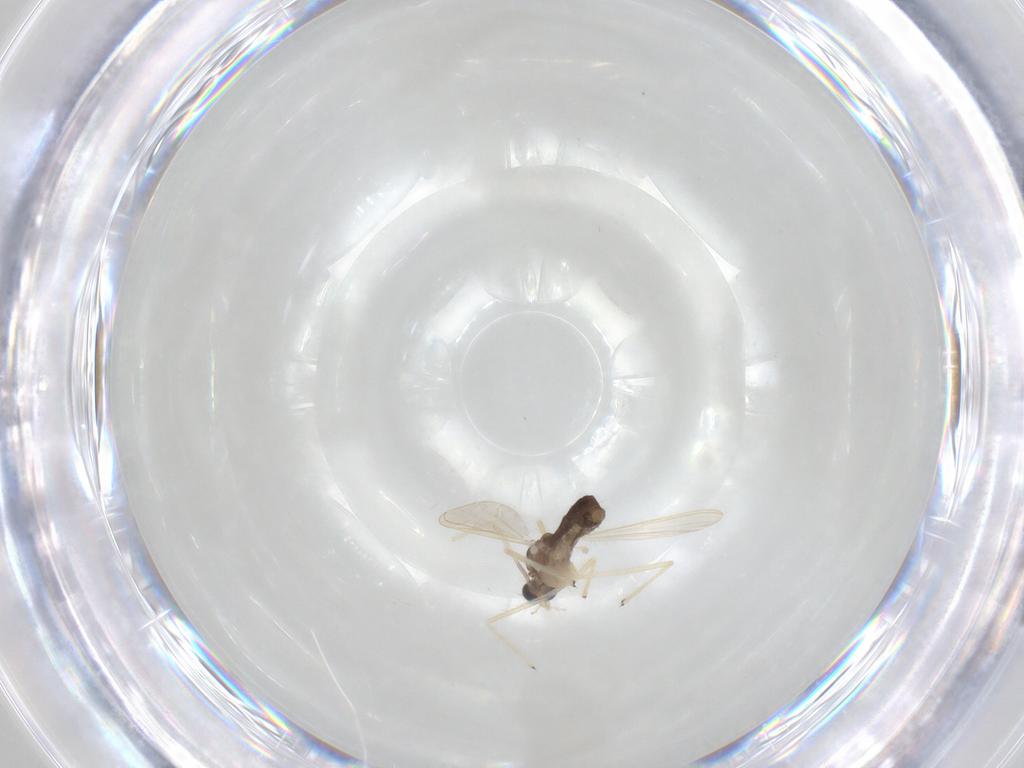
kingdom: Animalia
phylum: Arthropoda
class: Insecta
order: Diptera
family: Chironomidae
